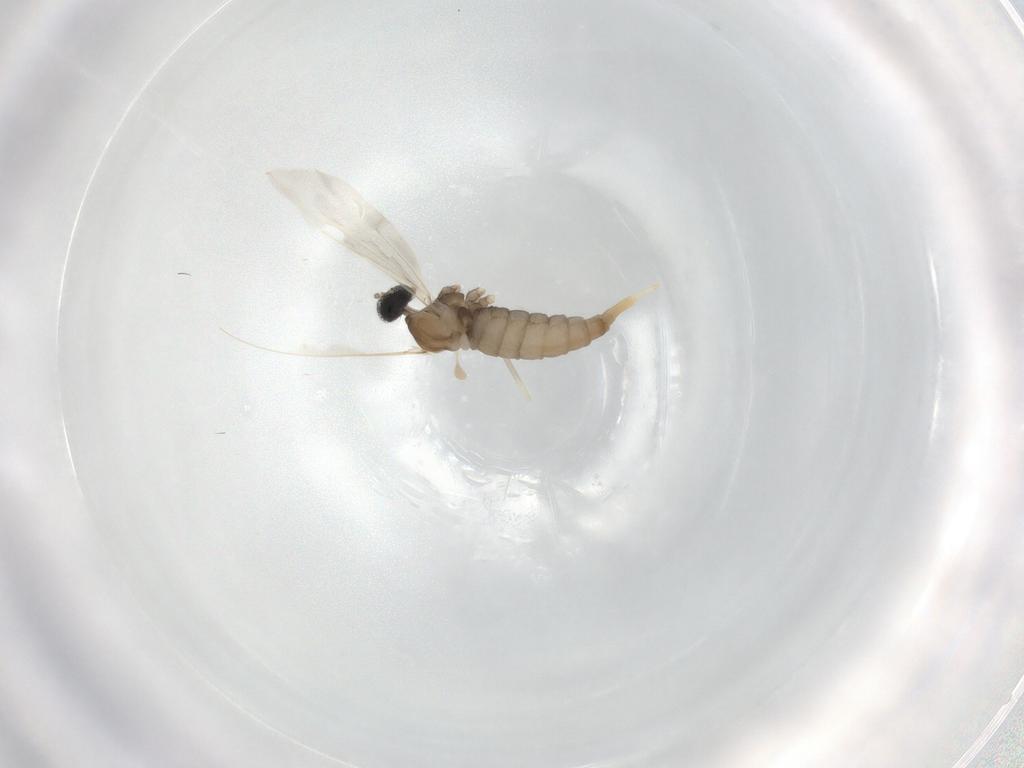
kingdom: Animalia
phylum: Arthropoda
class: Insecta
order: Diptera
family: Cecidomyiidae
